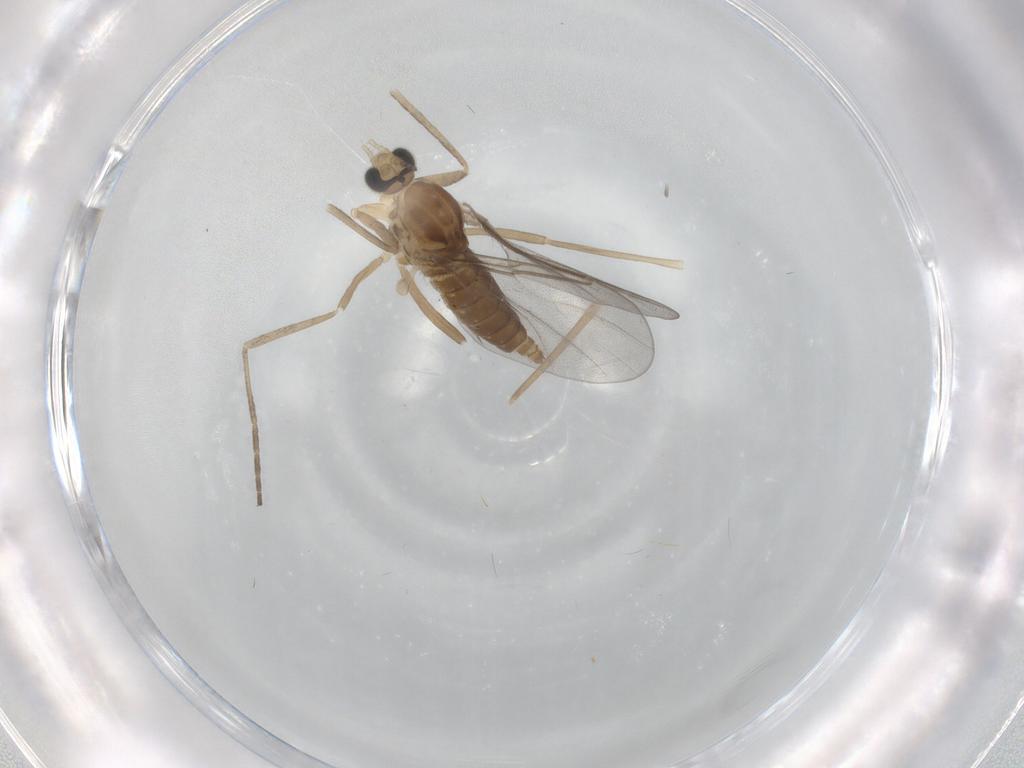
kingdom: Animalia
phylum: Arthropoda
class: Insecta
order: Diptera
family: Cecidomyiidae
